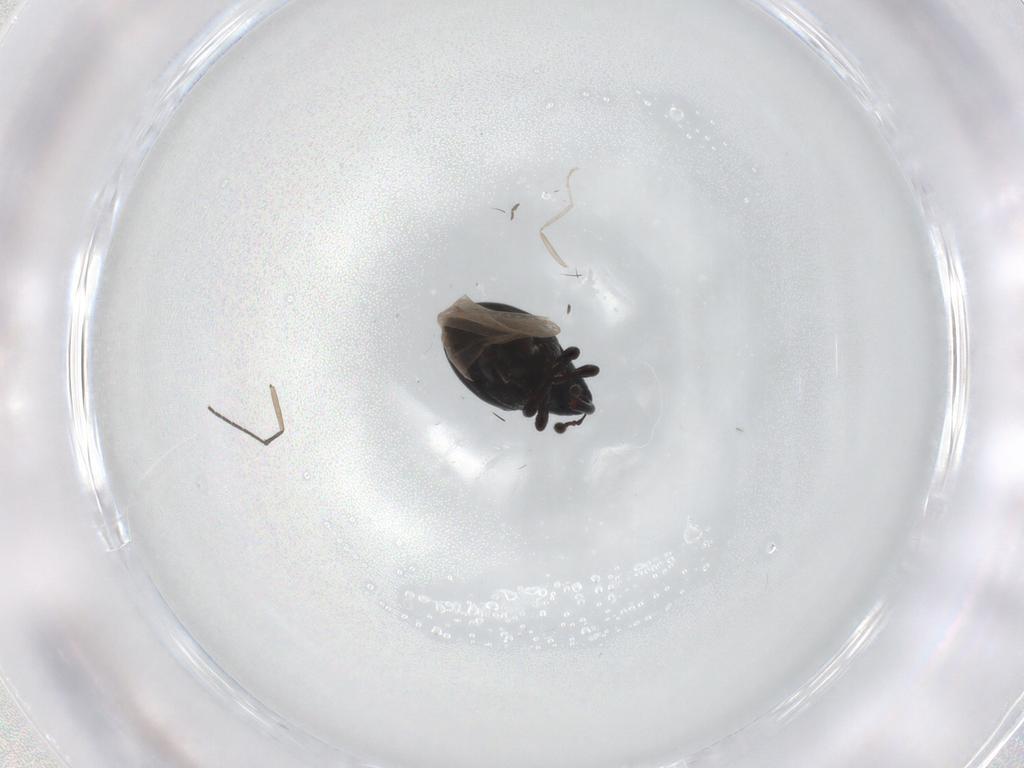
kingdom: Animalia
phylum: Arthropoda
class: Insecta
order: Coleoptera
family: Curculionidae
